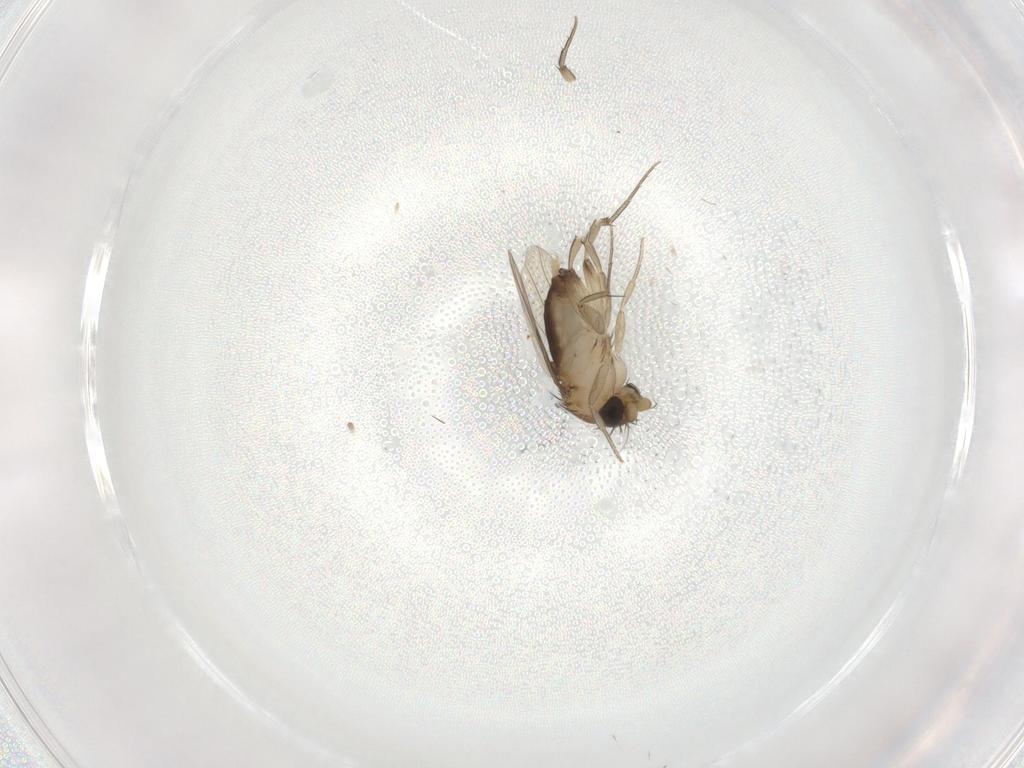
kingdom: Animalia
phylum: Arthropoda
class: Insecta
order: Diptera
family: Phoridae
